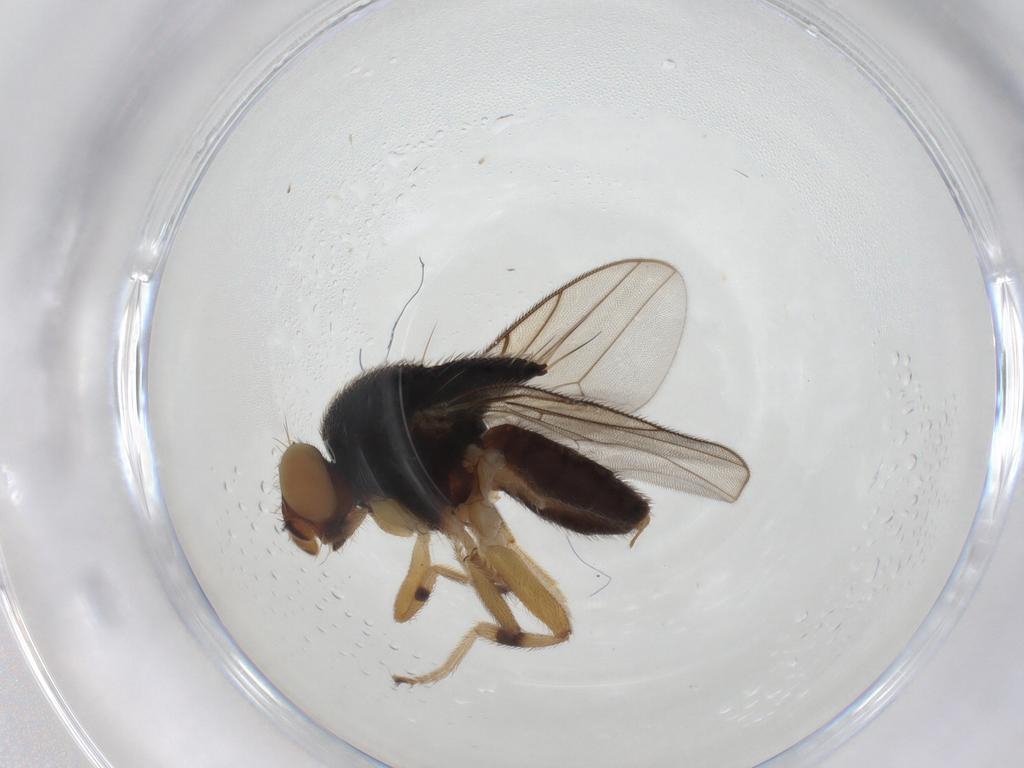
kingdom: Animalia
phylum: Arthropoda
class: Insecta
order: Diptera
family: Chloropidae
